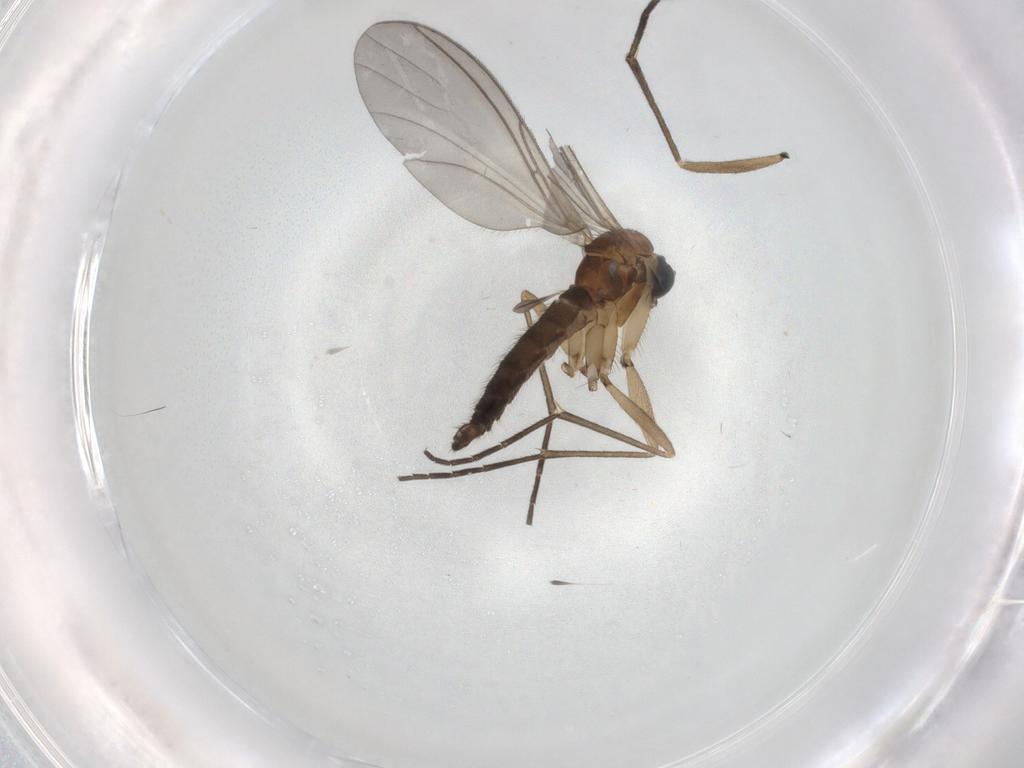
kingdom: Animalia
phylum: Arthropoda
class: Insecta
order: Diptera
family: Sciaridae
